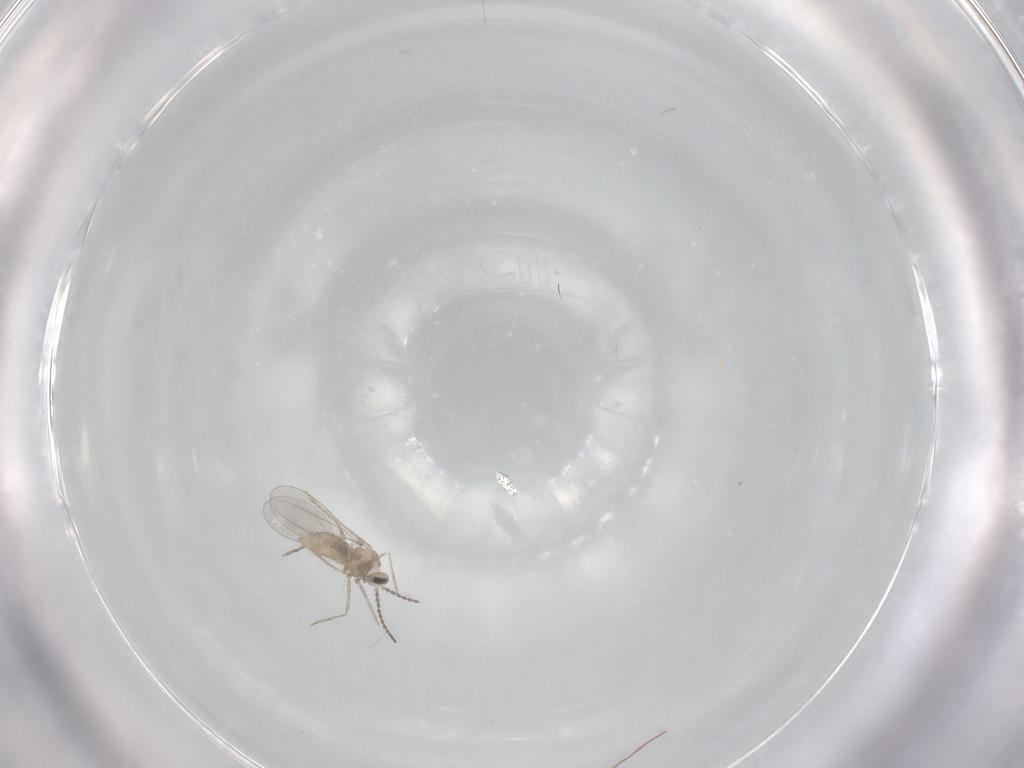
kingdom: Animalia
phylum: Arthropoda
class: Insecta
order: Diptera
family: Cecidomyiidae
